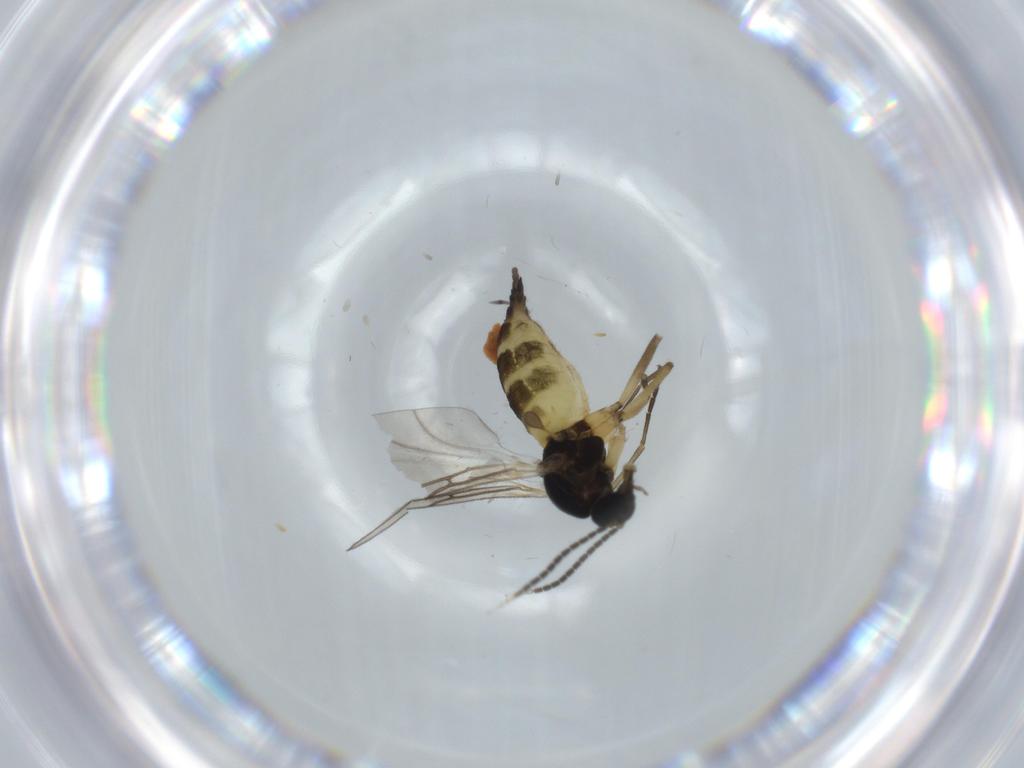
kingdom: Animalia
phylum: Arthropoda
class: Insecta
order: Diptera
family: Sciaridae
